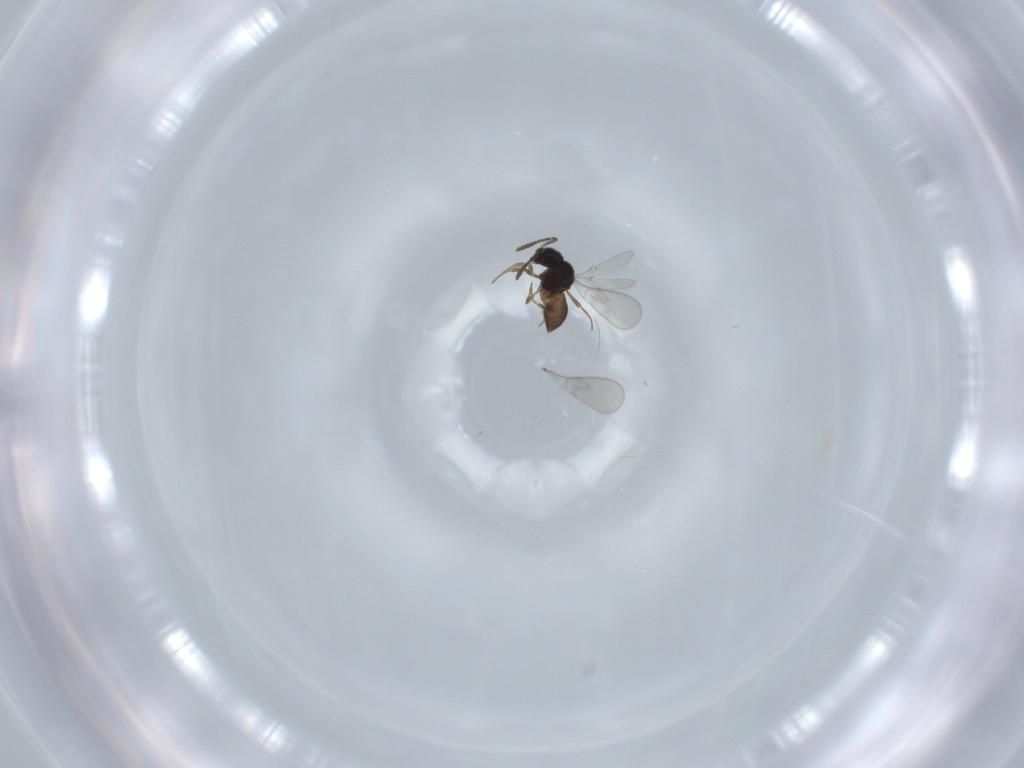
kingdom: Animalia
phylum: Arthropoda
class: Insecta
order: Hymenoptera
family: Scelionidae
